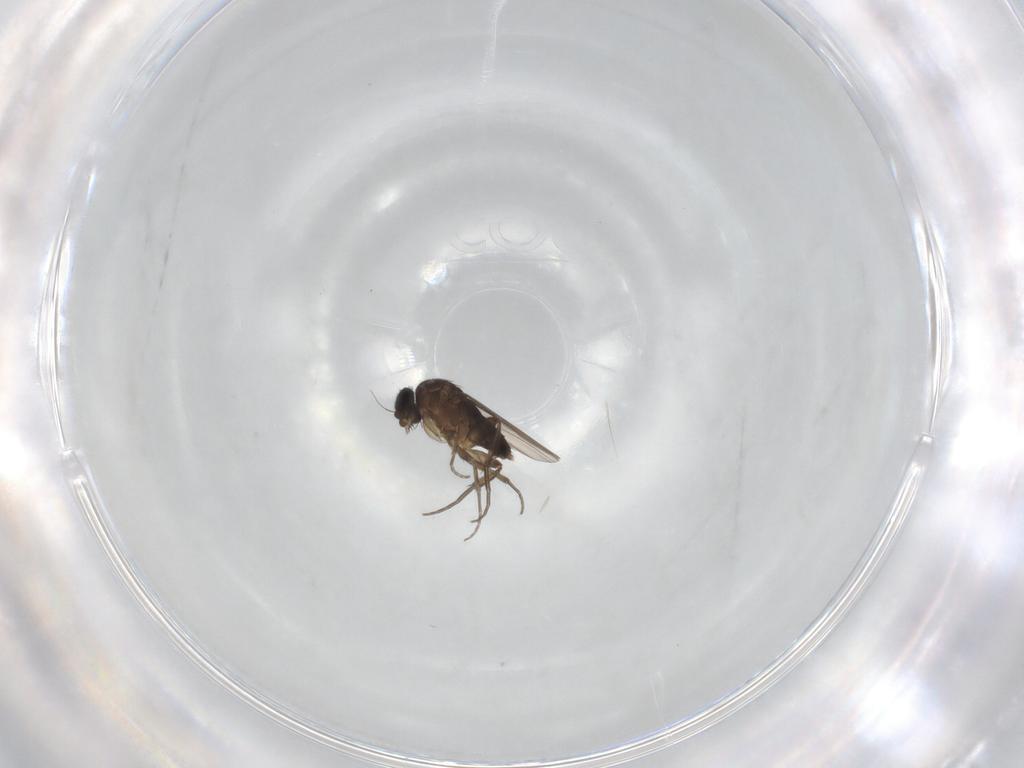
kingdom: Animalia
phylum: Arthropoda
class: Insecta
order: Diptera
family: Phoridae
